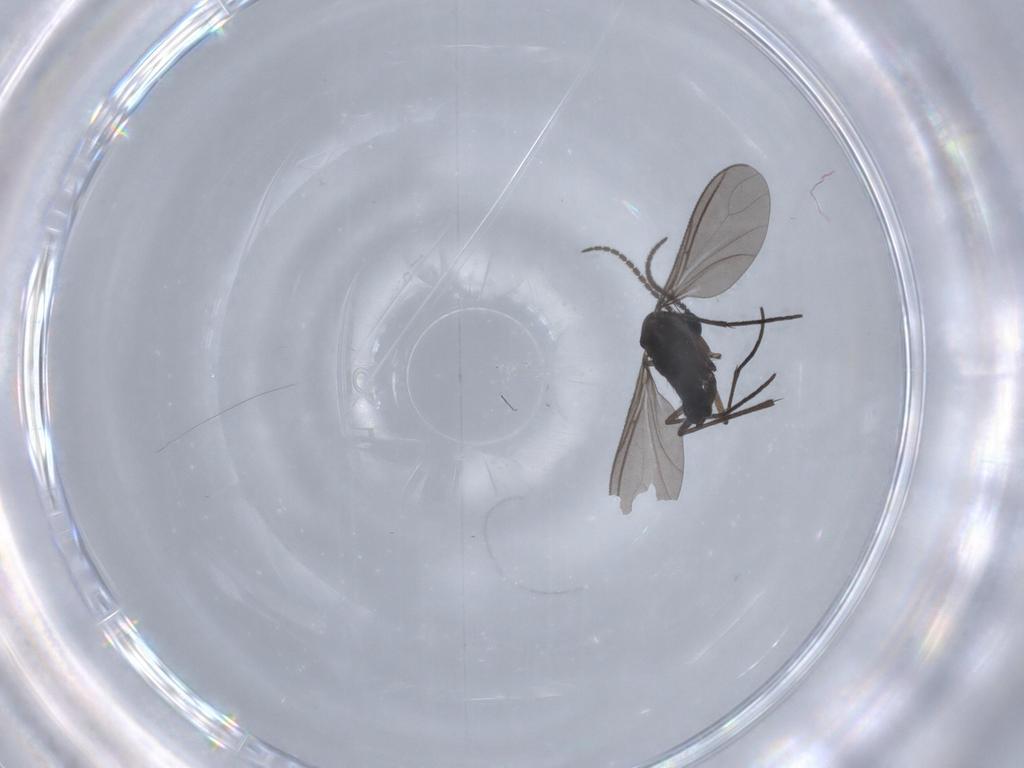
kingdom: Animalia
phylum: Arthropoda
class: Insecta
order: Diptera
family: Sciaridae
